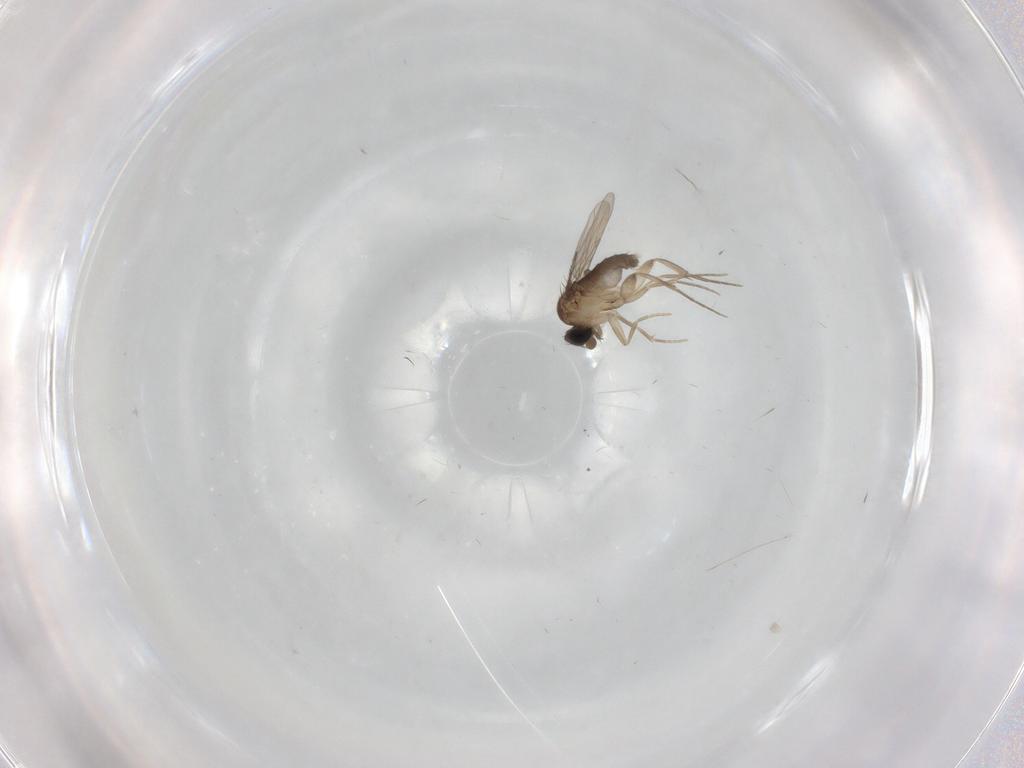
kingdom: Animalia
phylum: Arthropoda
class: Insecta
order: Diptera
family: Phoridae
